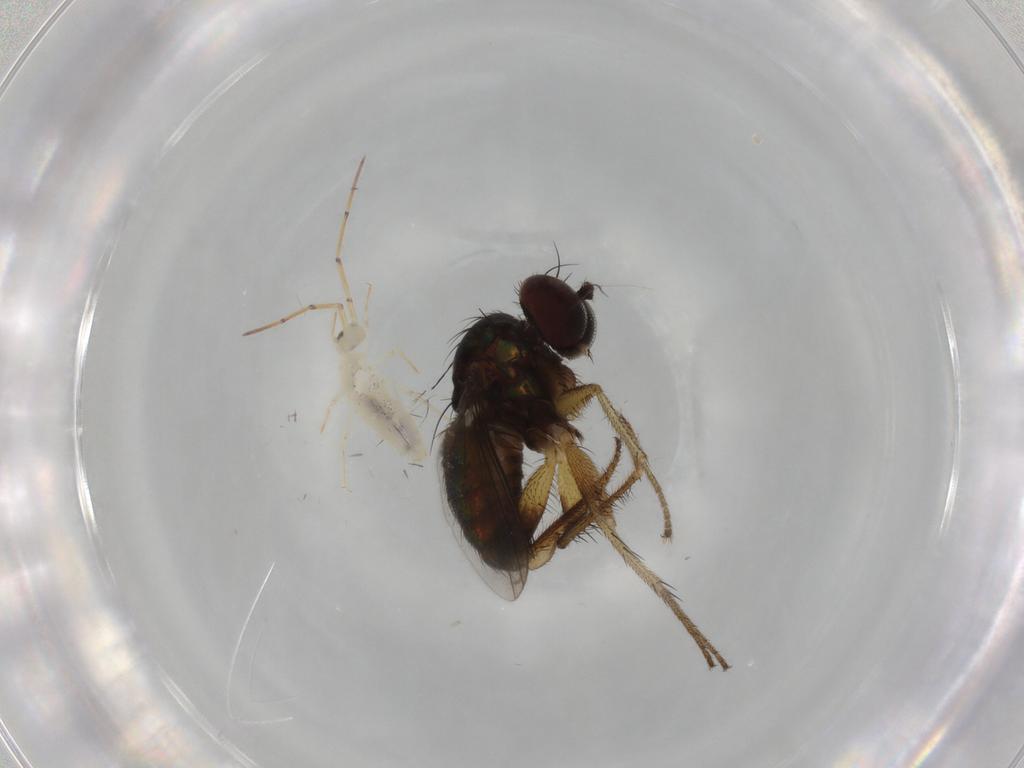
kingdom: Animalia
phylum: Arthropoda
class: Insecta
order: Diptera
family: Dolichopodidae
